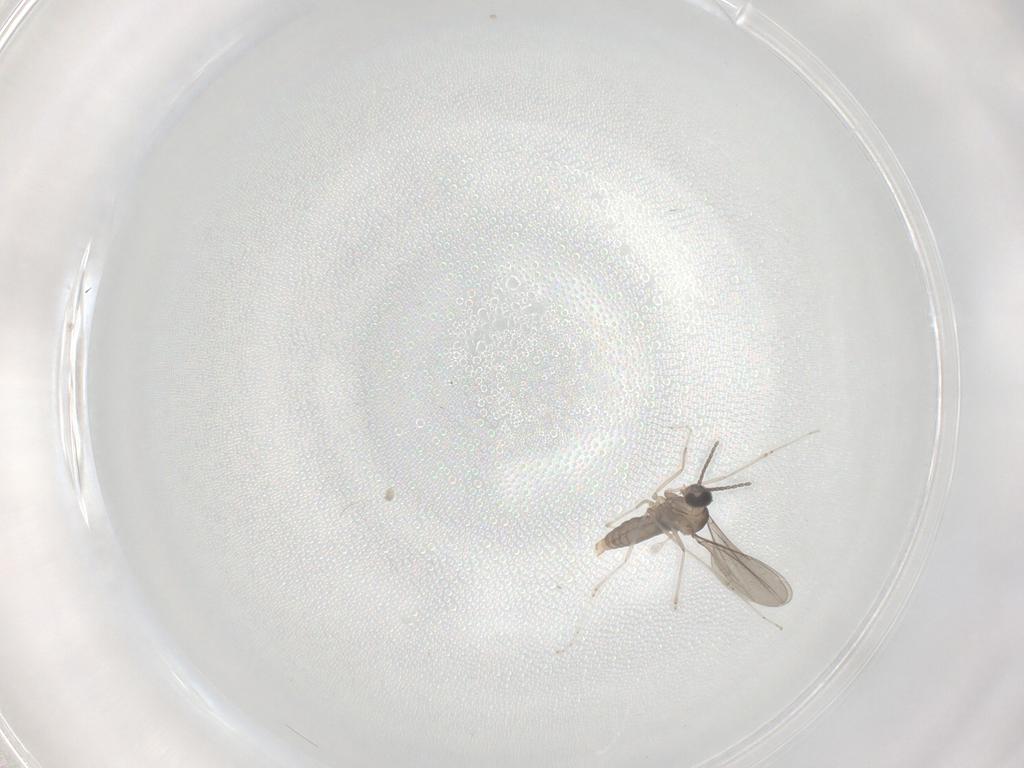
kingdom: Animalia
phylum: Arthropoda
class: Insecta
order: Diptera
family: Cecidomyiidae
